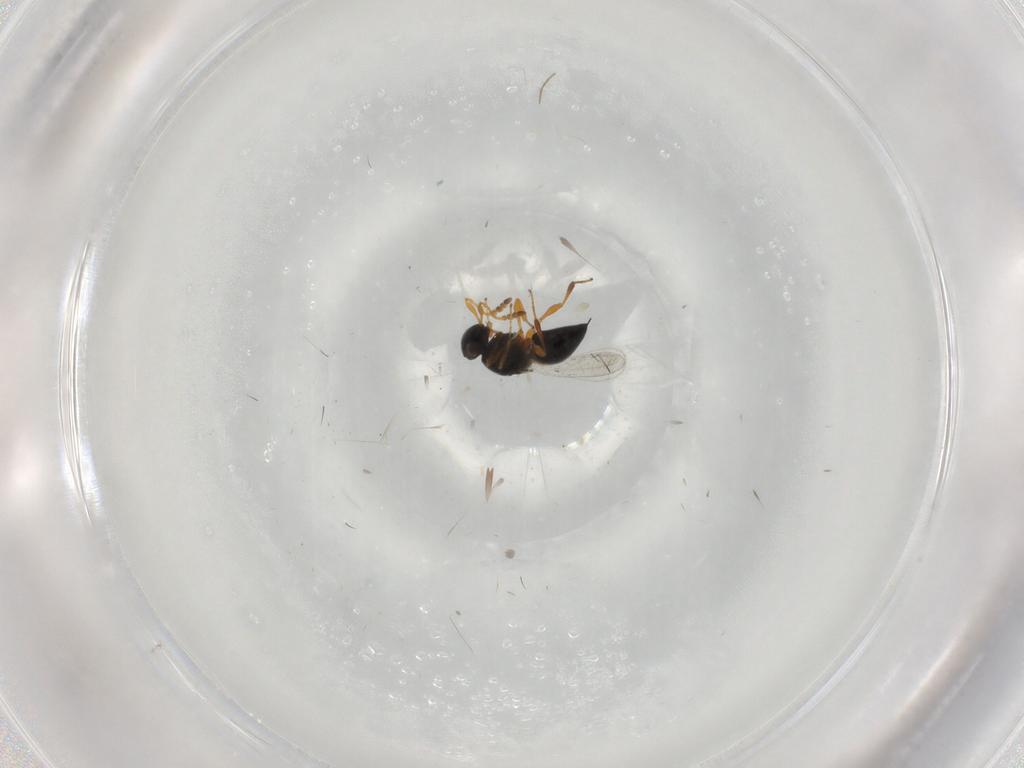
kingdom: Animalia
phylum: Arthropoda
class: Insecta
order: Hymenoptera
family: Platygastridae
